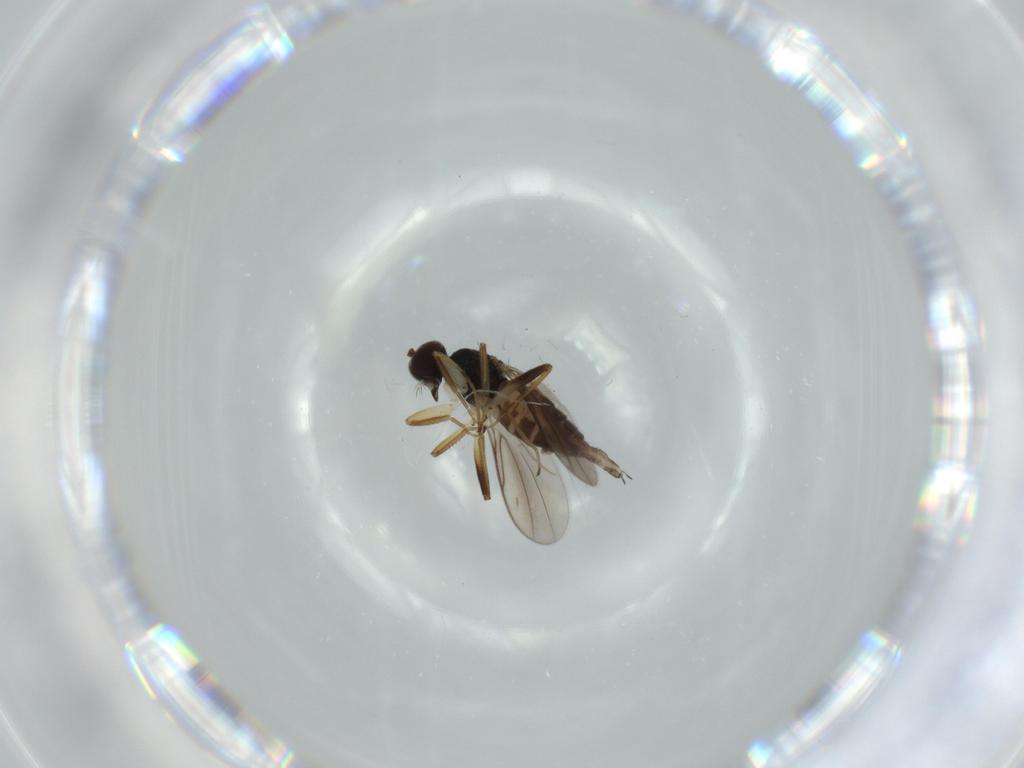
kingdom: Animalia
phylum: Arthropoda
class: Insecta
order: Diptera
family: Hybotidae
